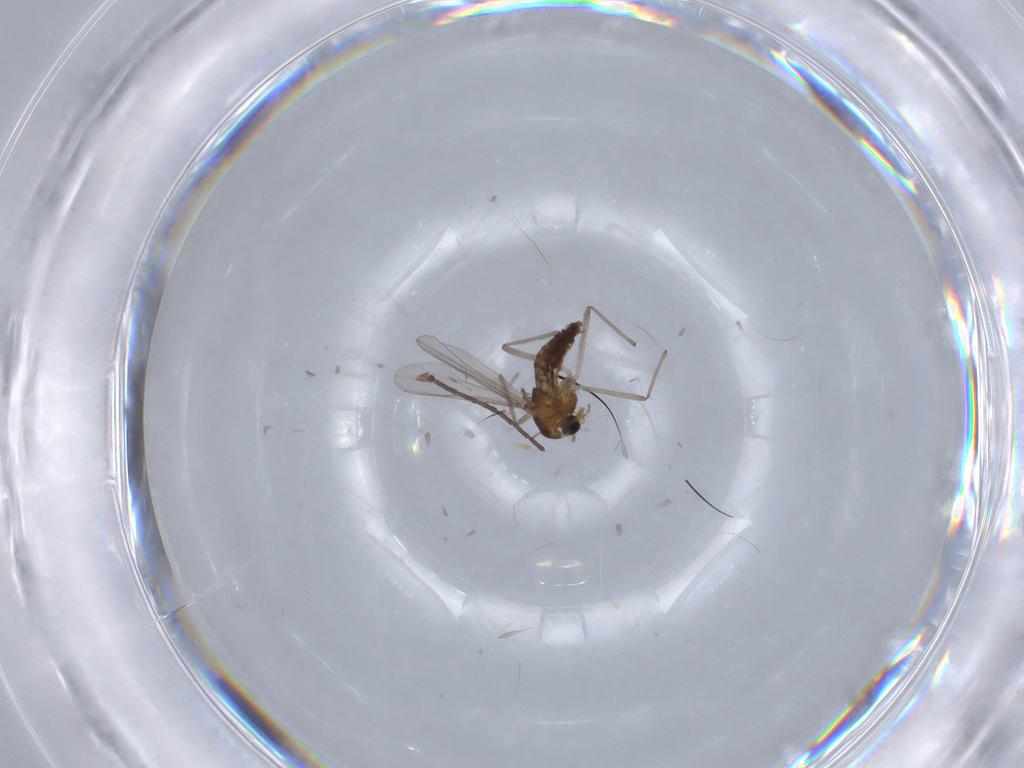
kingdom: Animalia
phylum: Arthropoda
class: Insecta
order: Diptera
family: Chironomidae
